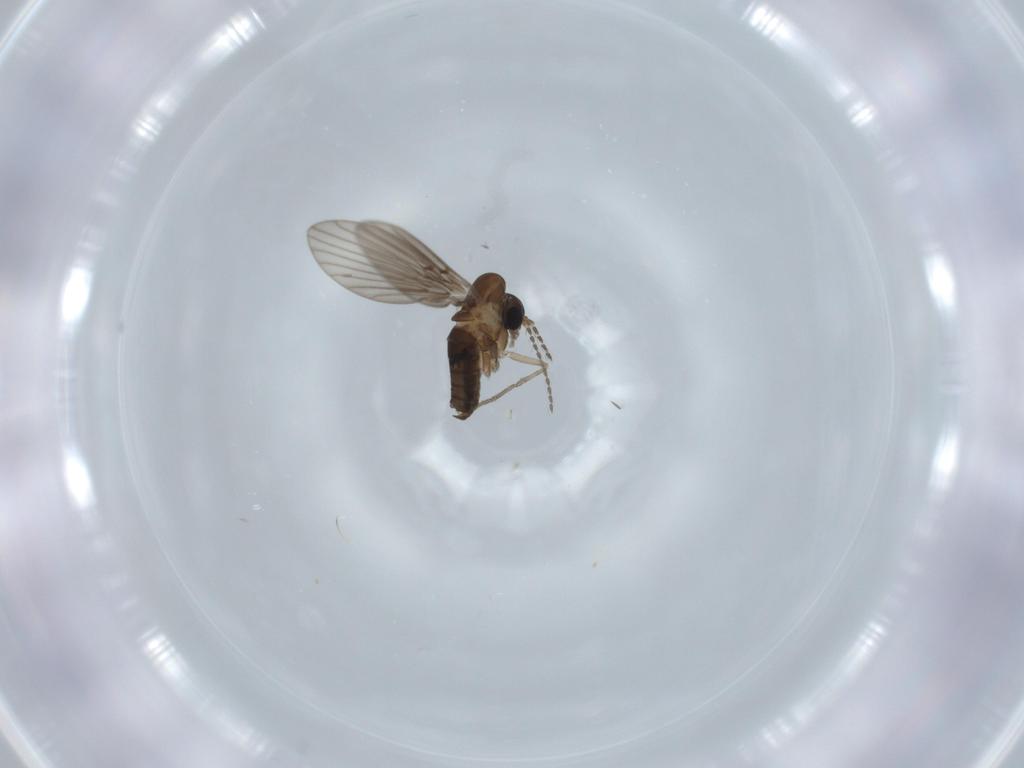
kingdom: Animalia
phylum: Arthropoda
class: Insecta
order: Diptera
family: Psychodidae
